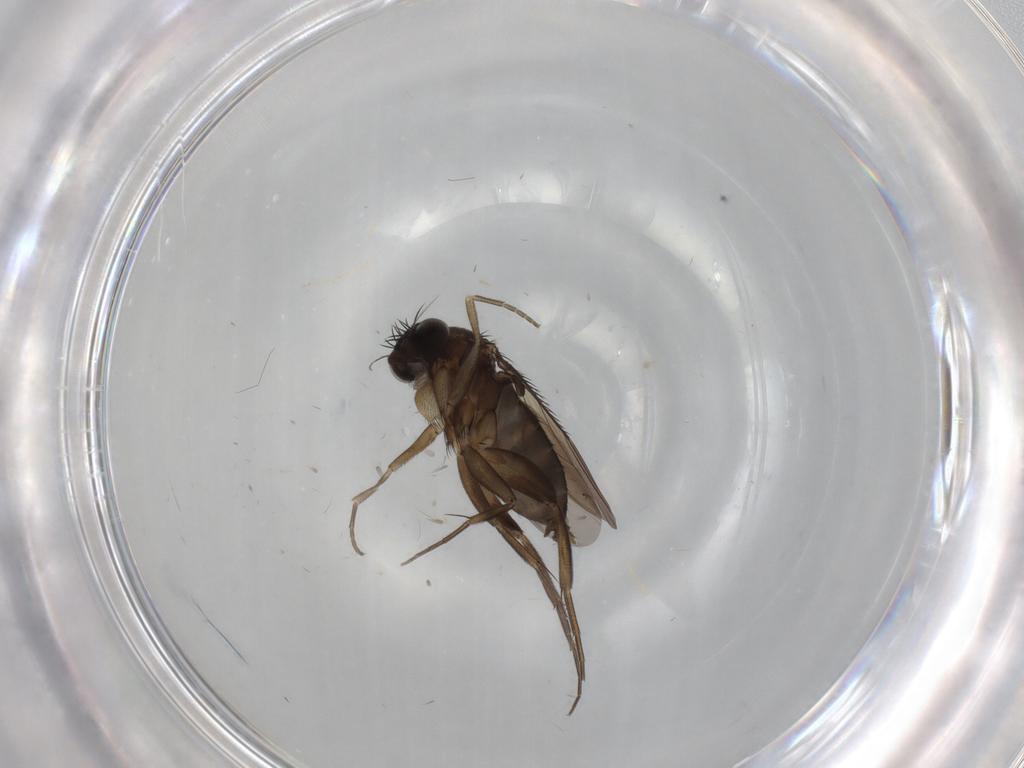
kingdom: Animalia
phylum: Arthropoda
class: Insecta
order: Diptera
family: Phoridae
